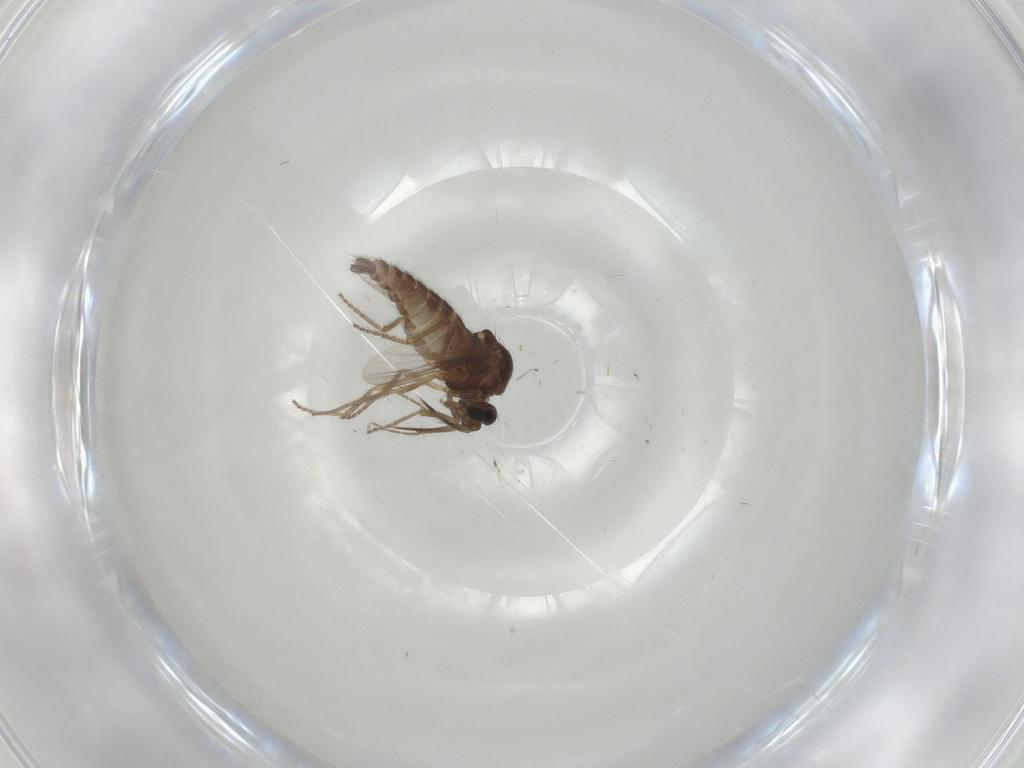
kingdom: Animalia
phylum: Arthropoda
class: Insecta
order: Diptera
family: Ceratopogonidae
